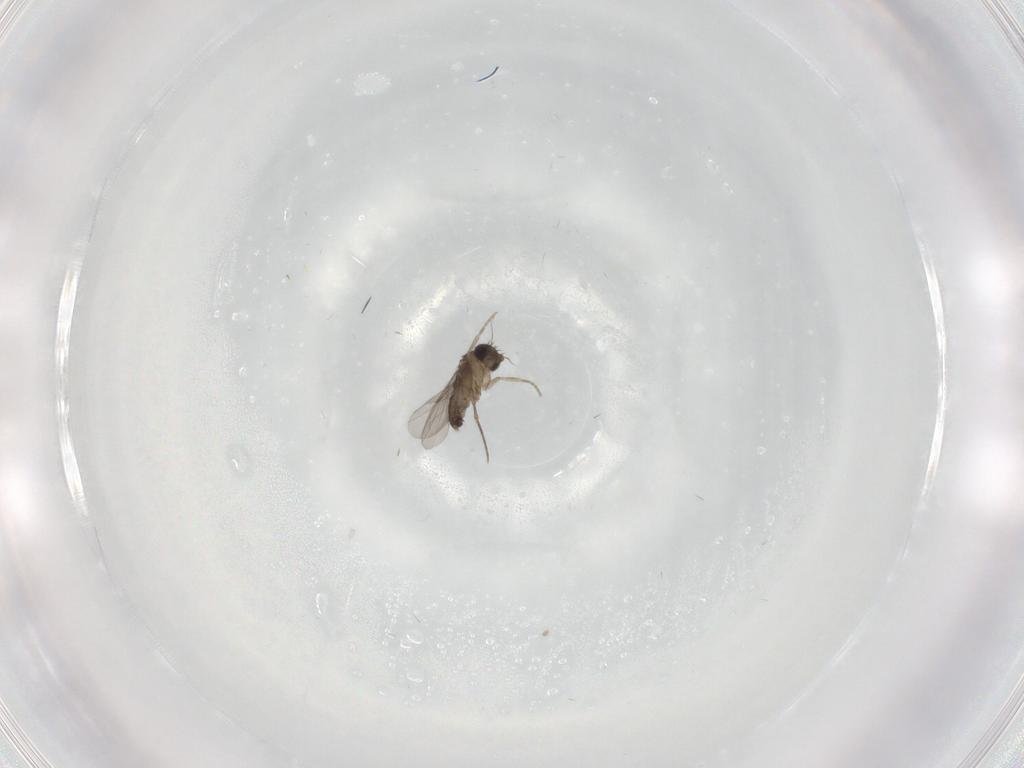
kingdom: Animalia
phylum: Arthropoda
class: Insecta
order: Diptera
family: Phoridae
